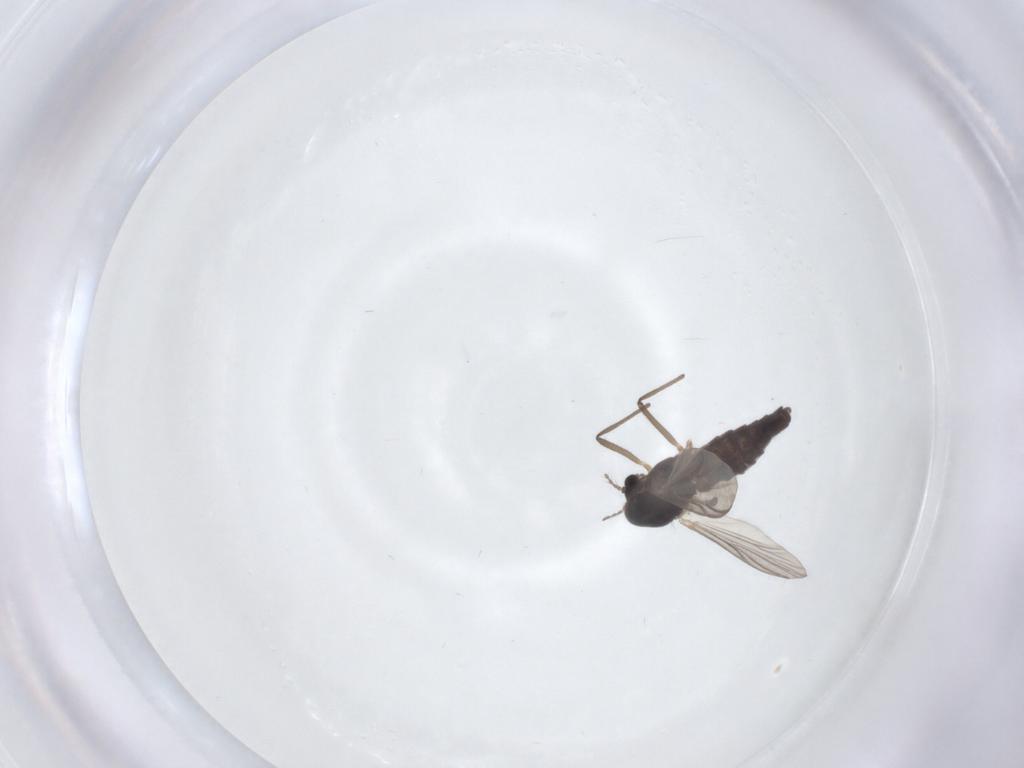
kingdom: Animalia
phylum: Arthropoda
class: Insecta
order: Diptera
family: Chironomidae
